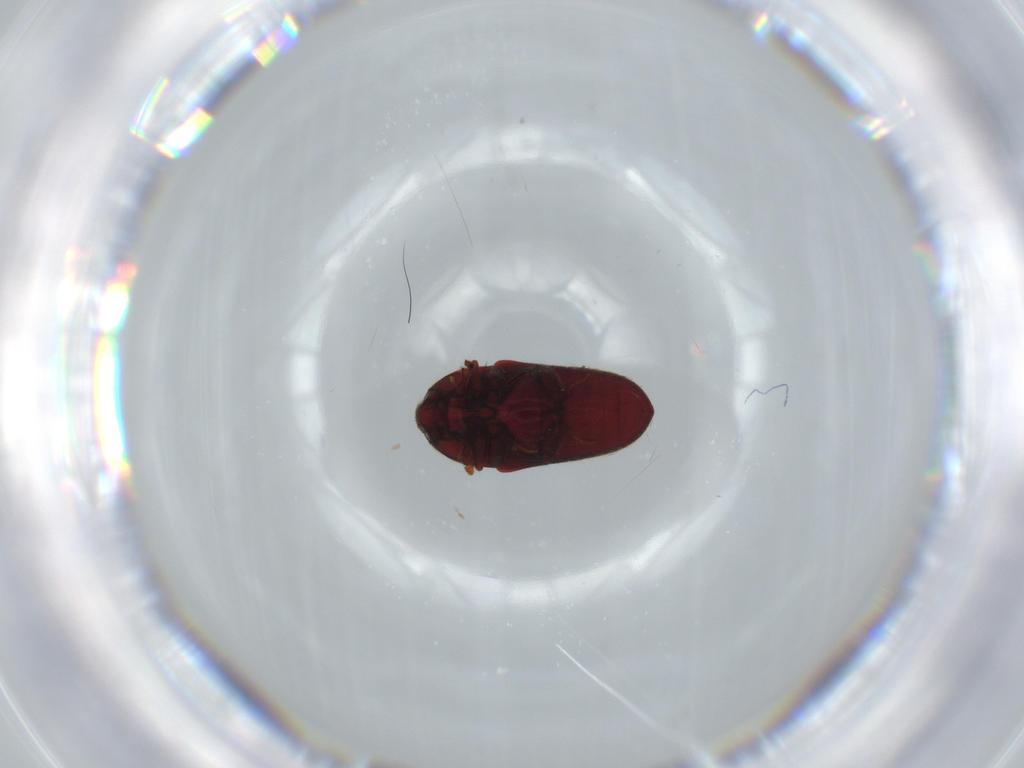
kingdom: Animalia
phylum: Arthropoda
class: Insecta
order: Coleoptera
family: Throscidae
